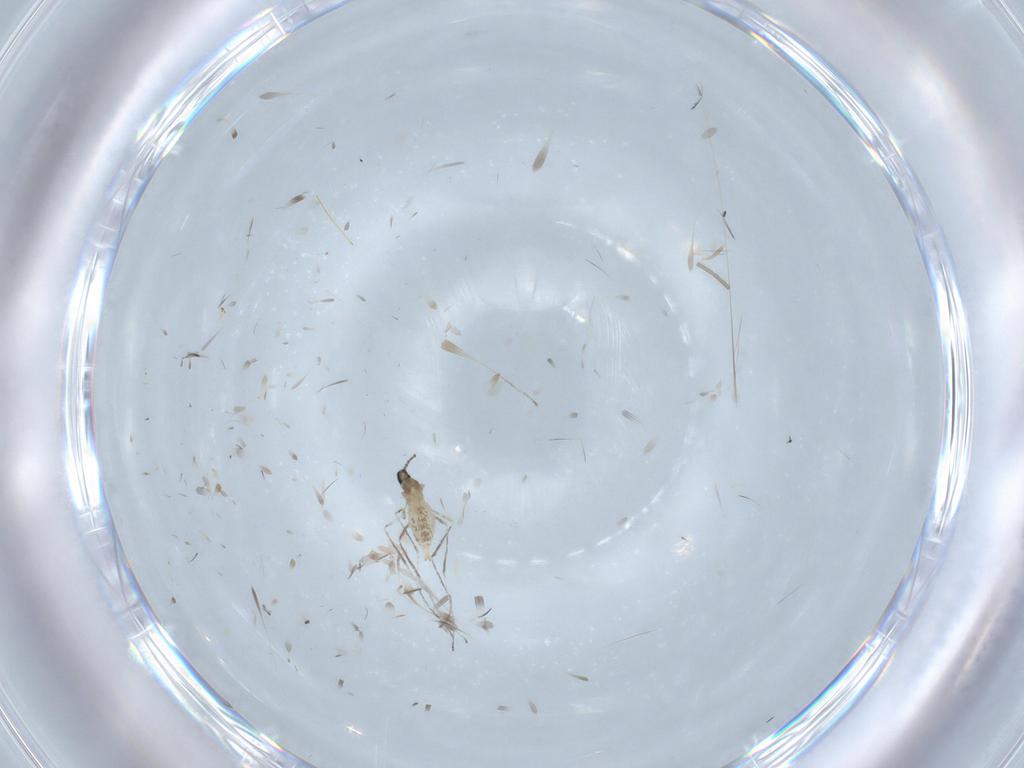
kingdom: Animalia
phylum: Arthropoda
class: Insecta
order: Diptera
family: Cecidomyiidae
